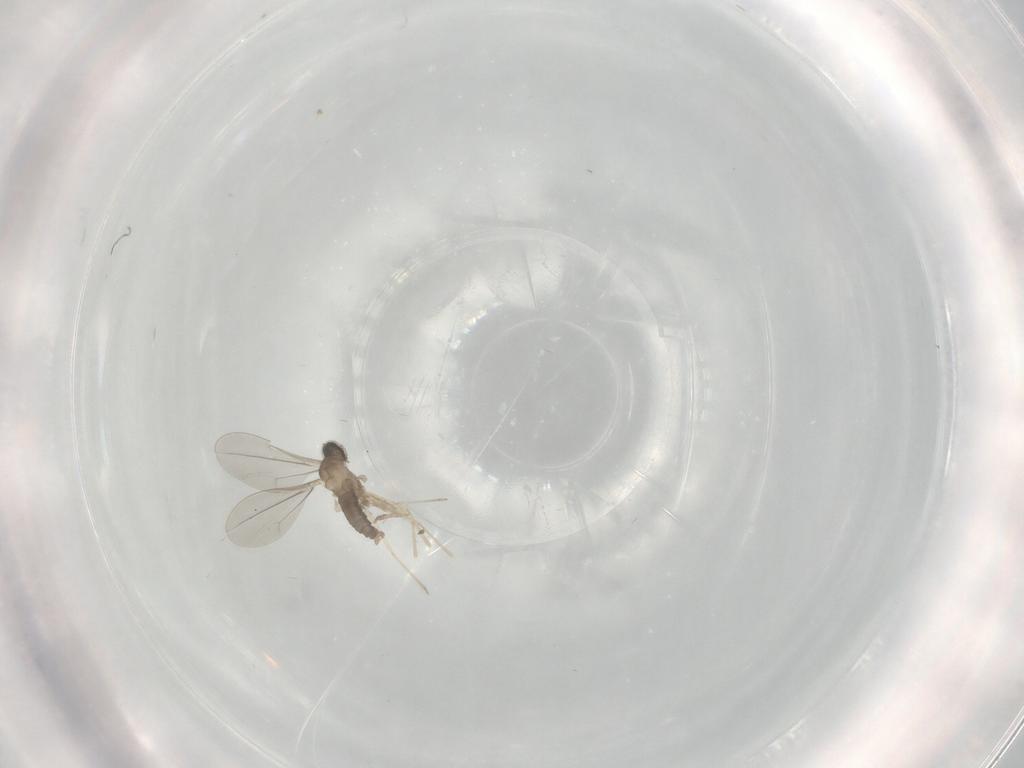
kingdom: Animalia
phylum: Arthropoda
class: Insecta
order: Diptera
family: Cecidomyiidae
